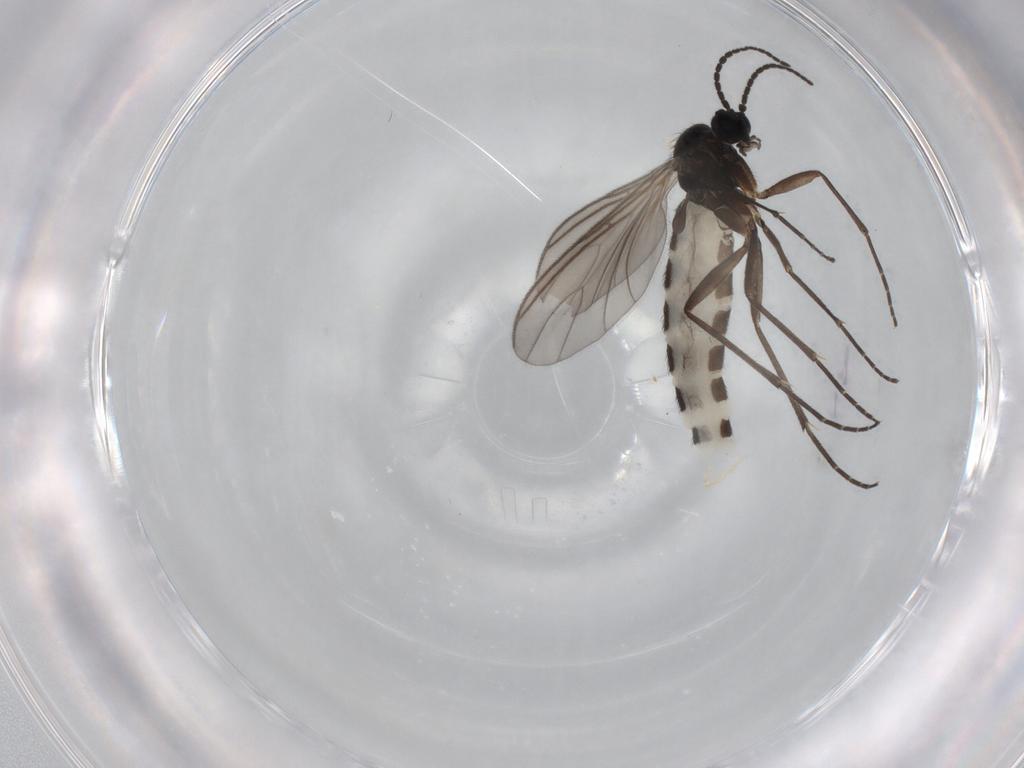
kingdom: Animalia
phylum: Arthropoda
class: Insecta
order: Diptera
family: Sciaridae
